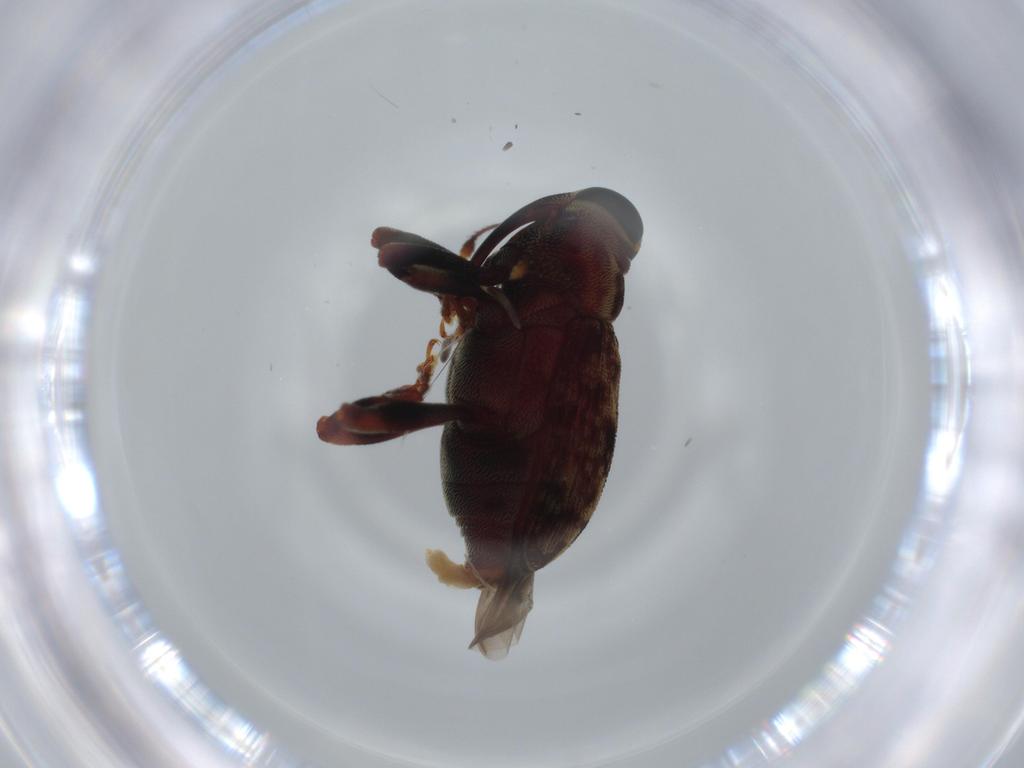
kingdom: Animalia
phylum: Arthropoda
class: Insecta
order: Coleoptera
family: Curculionidae
